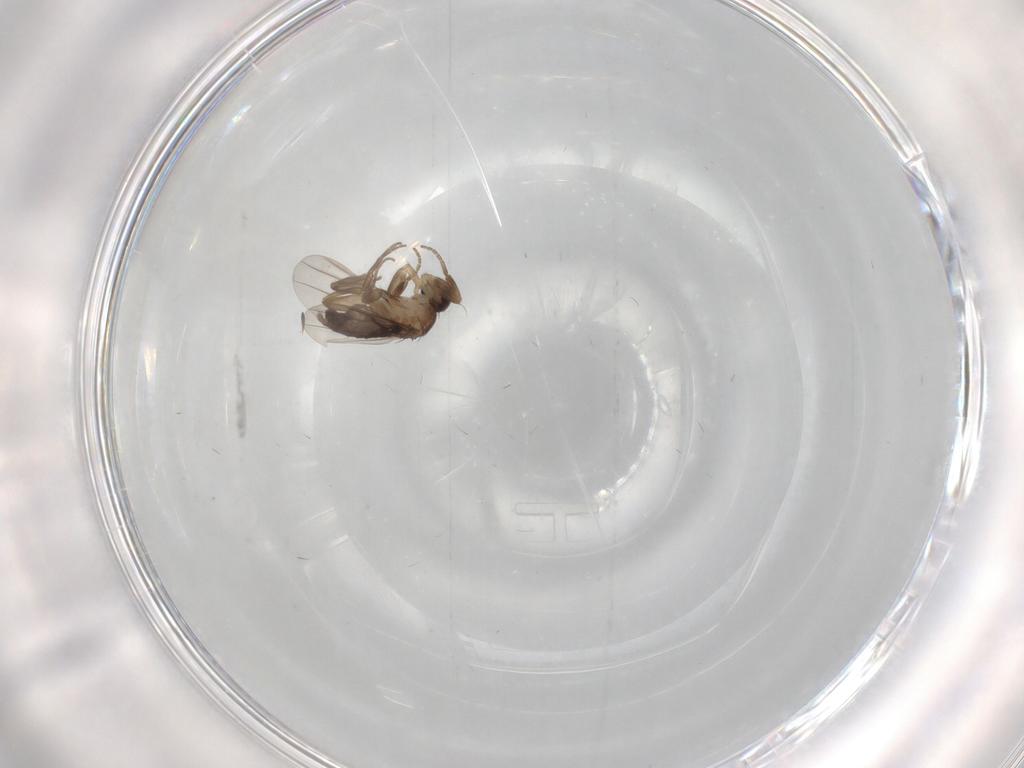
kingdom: Animalia
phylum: Arthropoda
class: Insecta
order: Diptera
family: Phoridae
